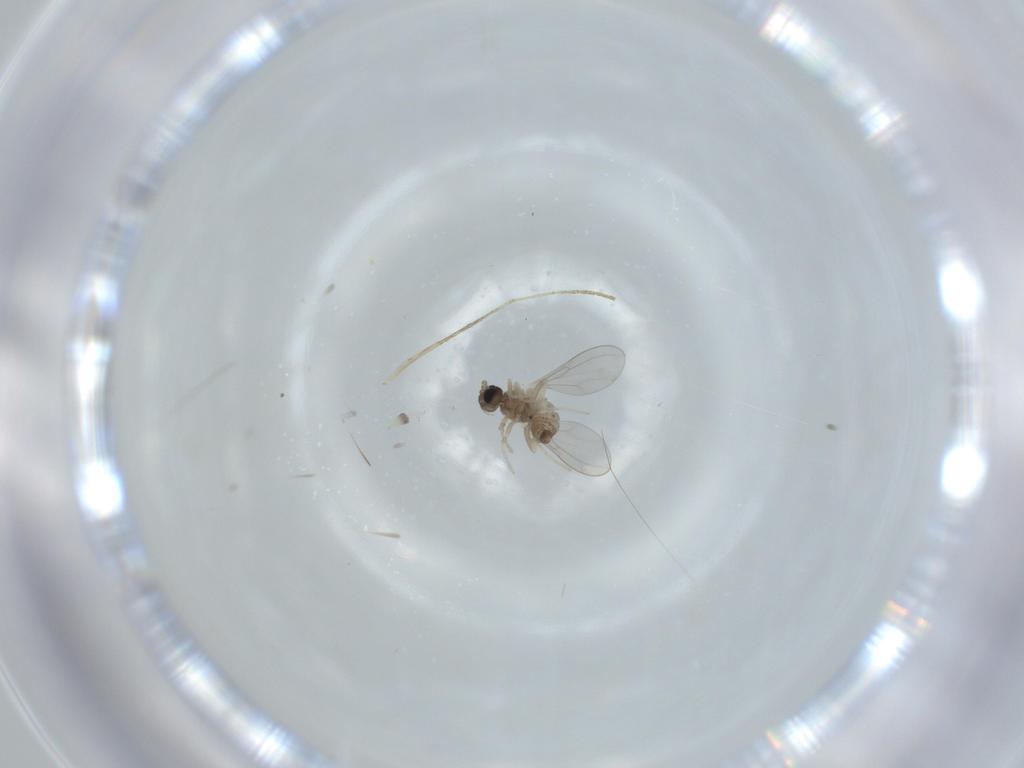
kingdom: Animalia
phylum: Arthropoda
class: Insecta
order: Diptera
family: Cecidomyiidae
